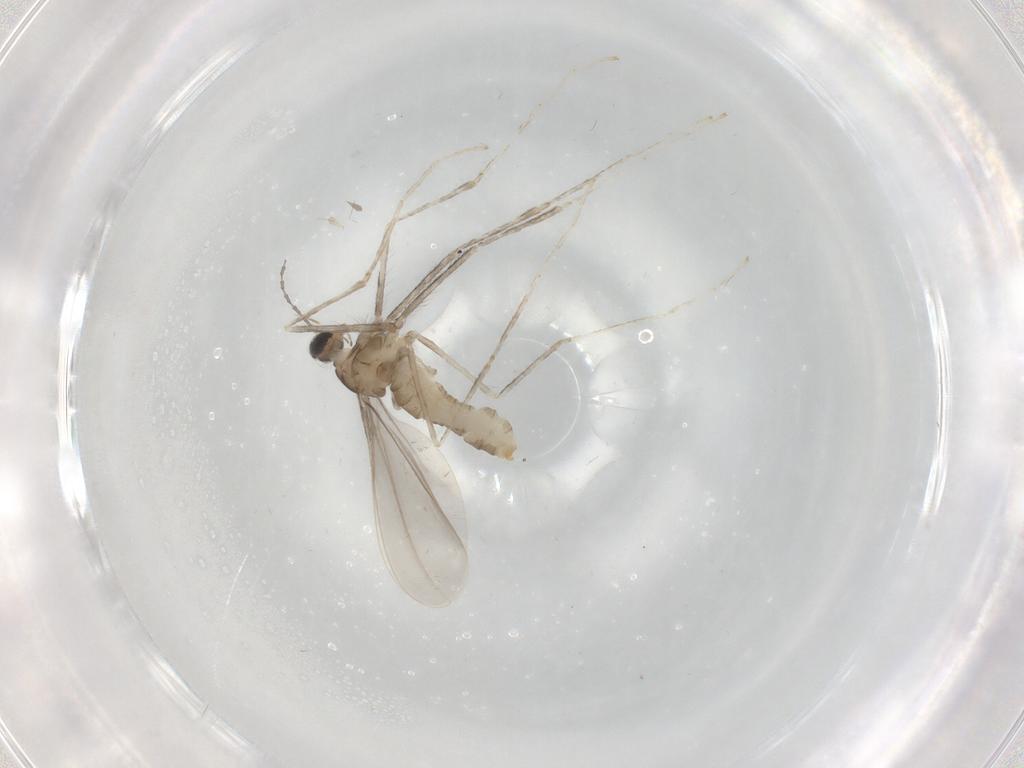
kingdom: Animalia
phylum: Arthropoda
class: Insecta
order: Diptera
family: Cecidomyiidae
